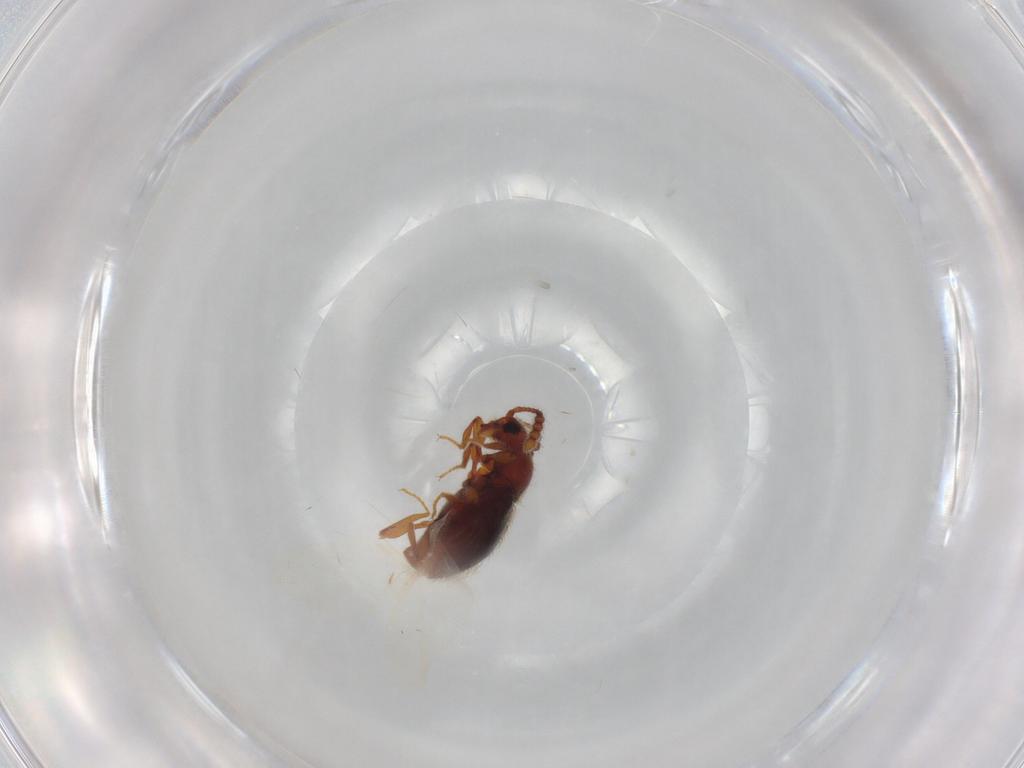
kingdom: Animalia
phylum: Arthropoda
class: Insecta
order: Coleoptera
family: Staphylinidae
